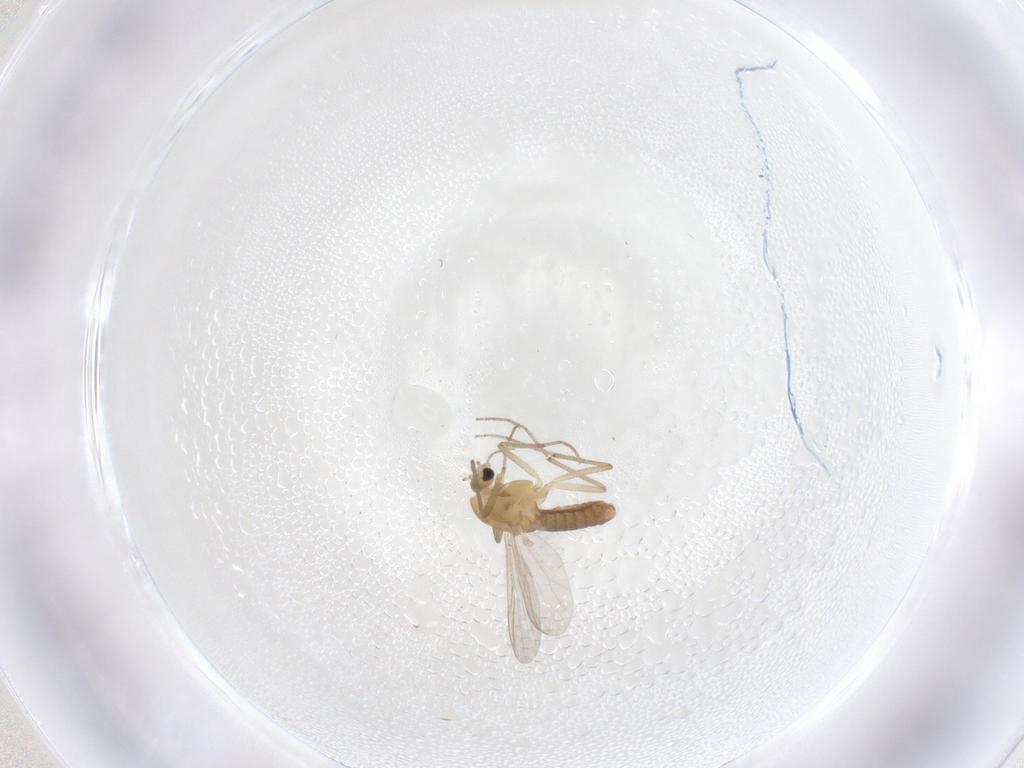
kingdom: Animalia
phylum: Arthropoda
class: Insecta
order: Diptera
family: Chironomidae
